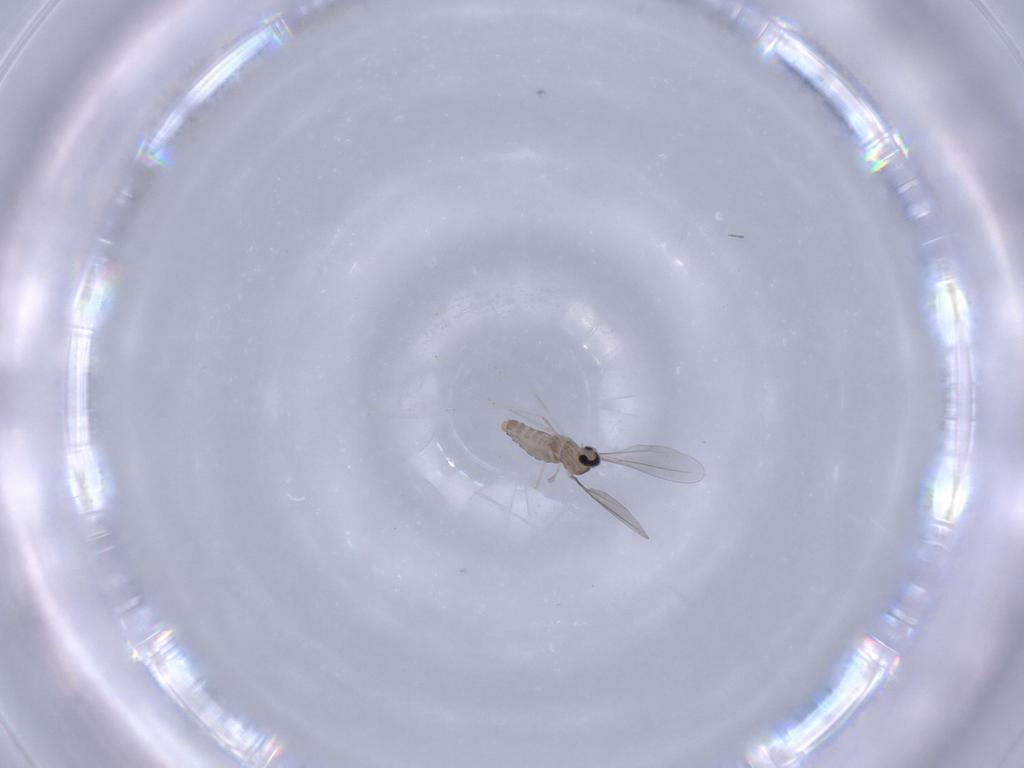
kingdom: Animalia
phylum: Arthropoda
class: Insecta
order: Diptera
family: Cecidomyiidae
